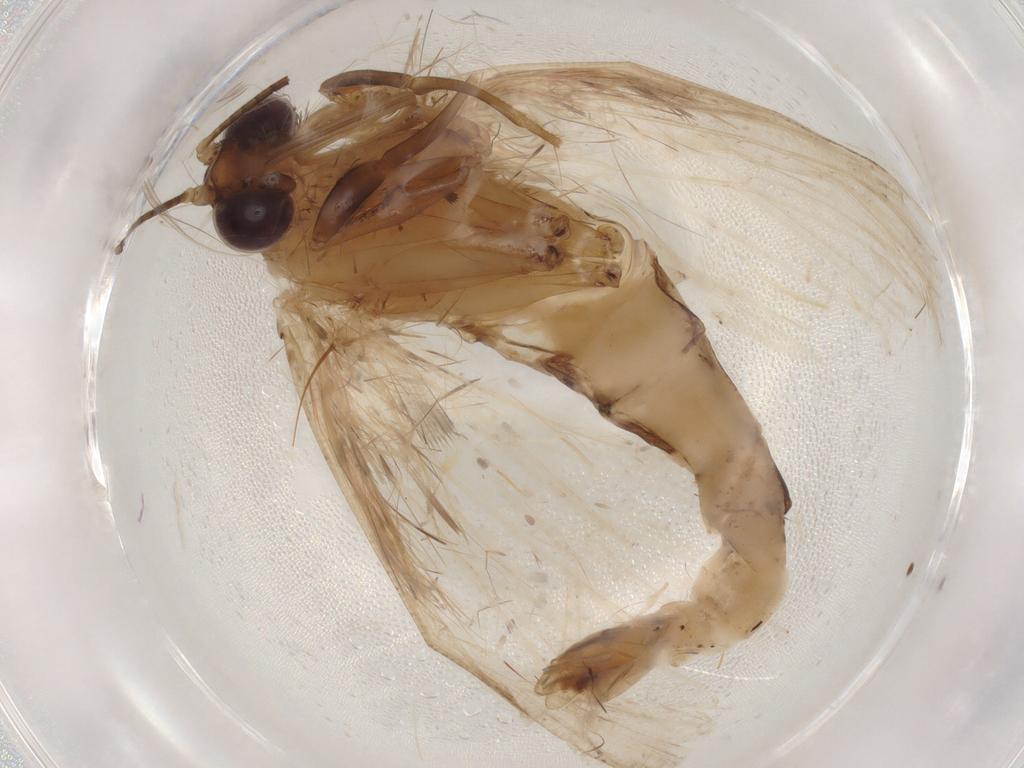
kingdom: Animalia
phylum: Arthropoda
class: Insecta
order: Lepidoptera
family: Erebidae
